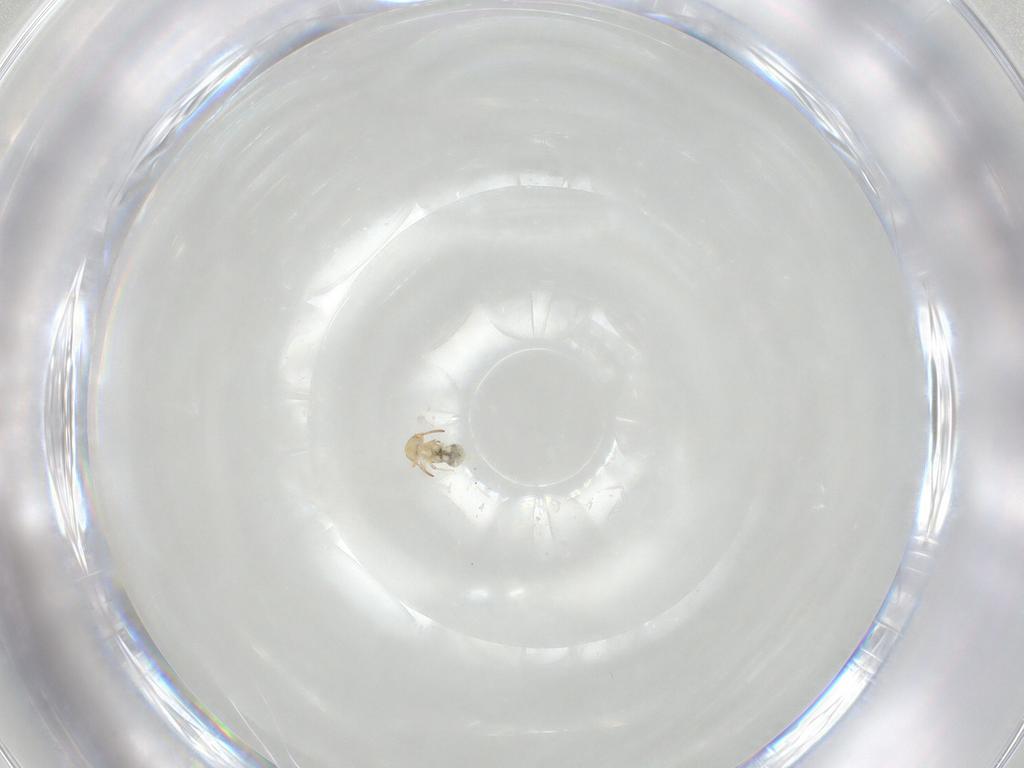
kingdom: Animalia
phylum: Arthropoda
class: Collembola
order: Symphypleona
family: Bourletiellidae
